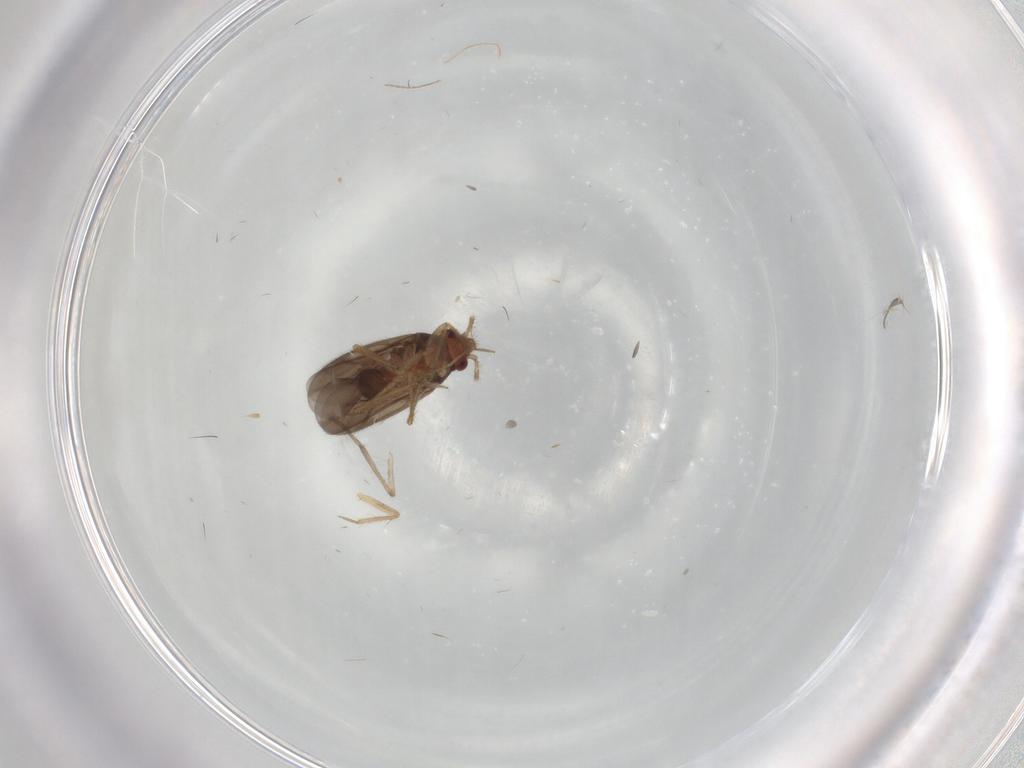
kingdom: Animalia
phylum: Arthropoda
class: Insecta
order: Hemiptera
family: Ceratocombidae
